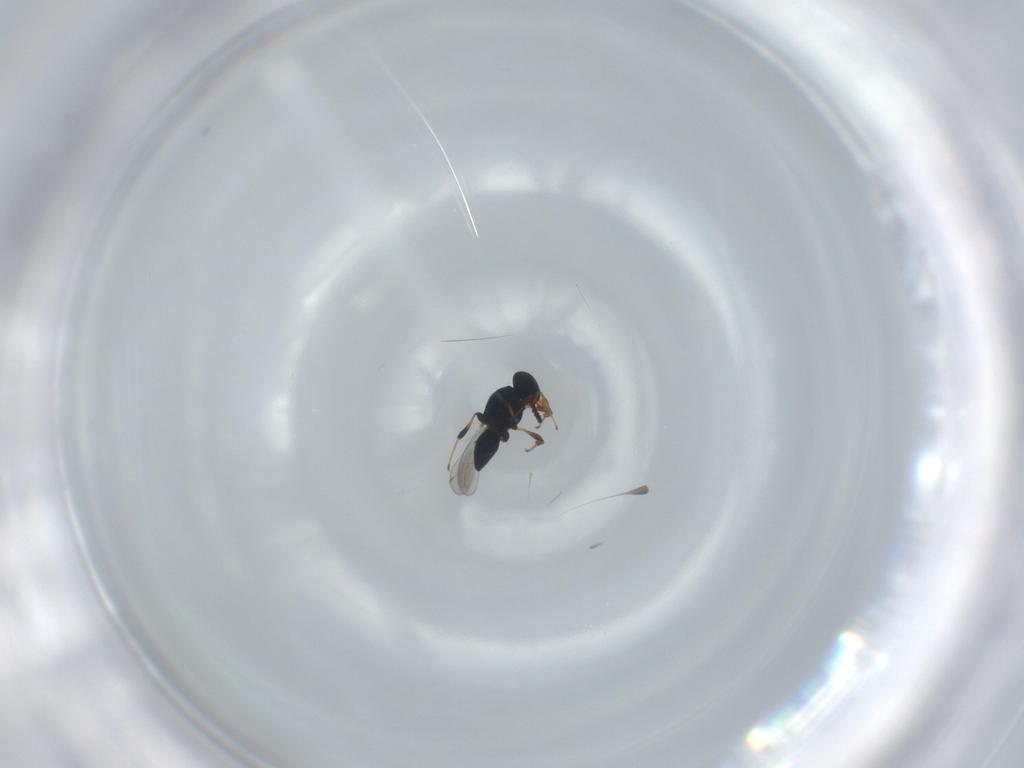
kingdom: Animalia
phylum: Arthropoda
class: Insecta
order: Hymenoptera
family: Platygastridae
